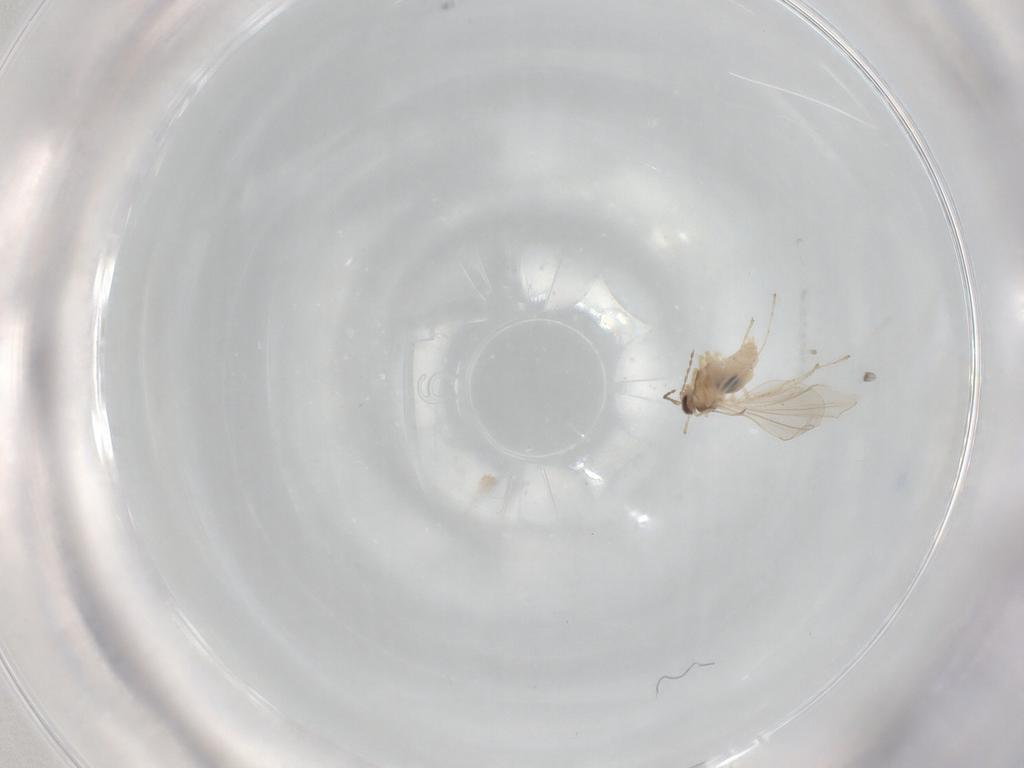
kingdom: Animalia
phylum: Arthropoda
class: Insecta
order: Diptera
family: Cecidomyiidae
